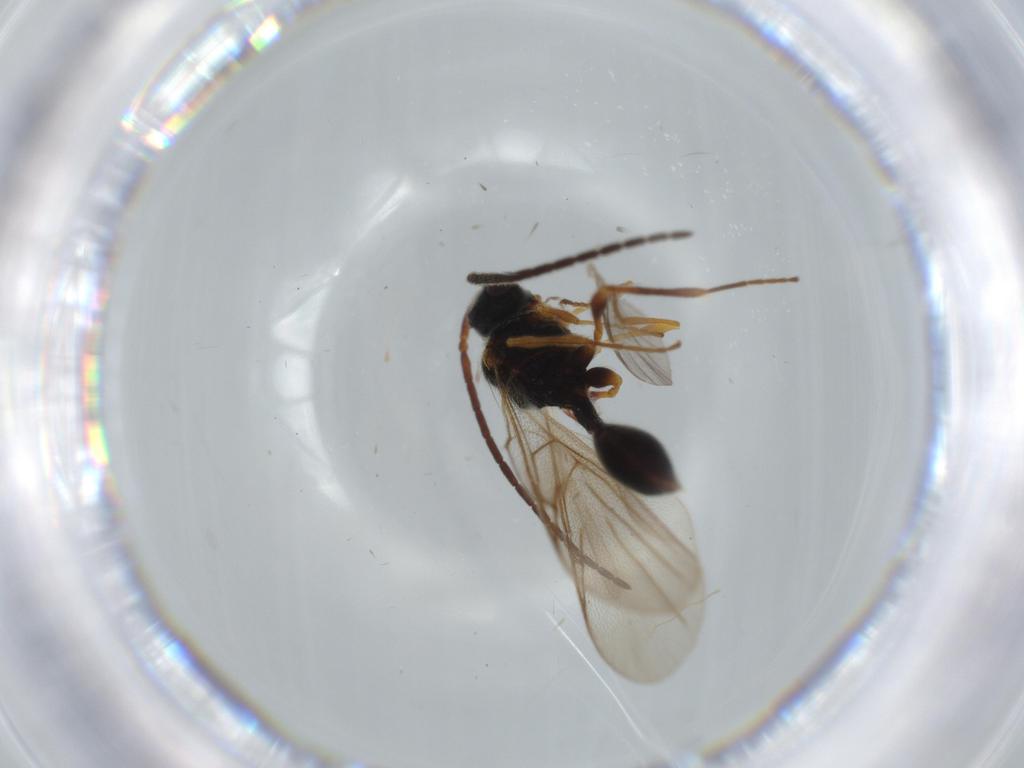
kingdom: Animalia
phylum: Arthropoda
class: Insecta
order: Hymenoptera
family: Braconidae
